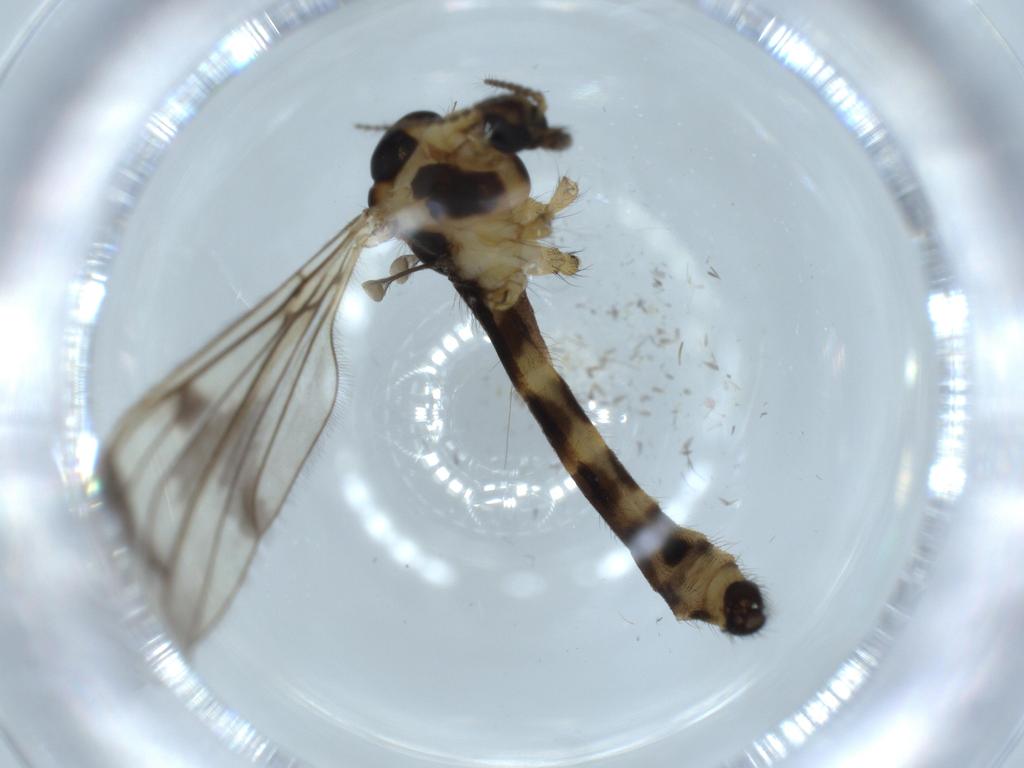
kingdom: Animalia
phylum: Arthropoda
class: Insecta
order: Diptera
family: Limoniidae
